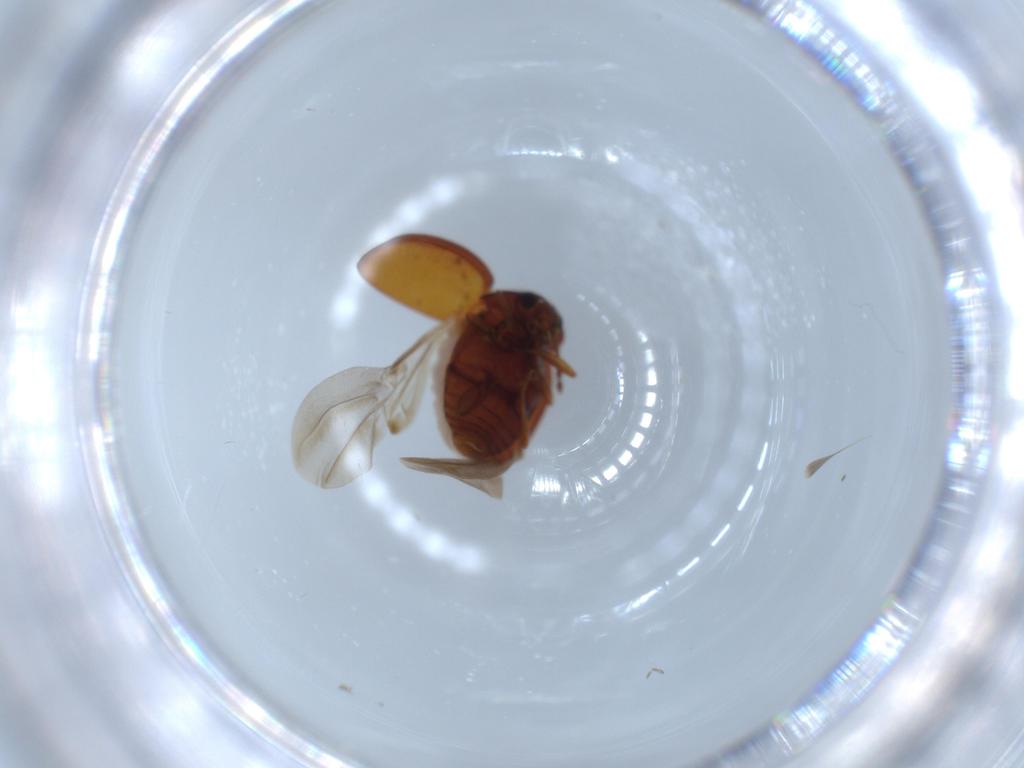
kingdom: Animalia
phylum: Arthropoda
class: Insecta
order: Coleoptera
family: Anamorphidae
